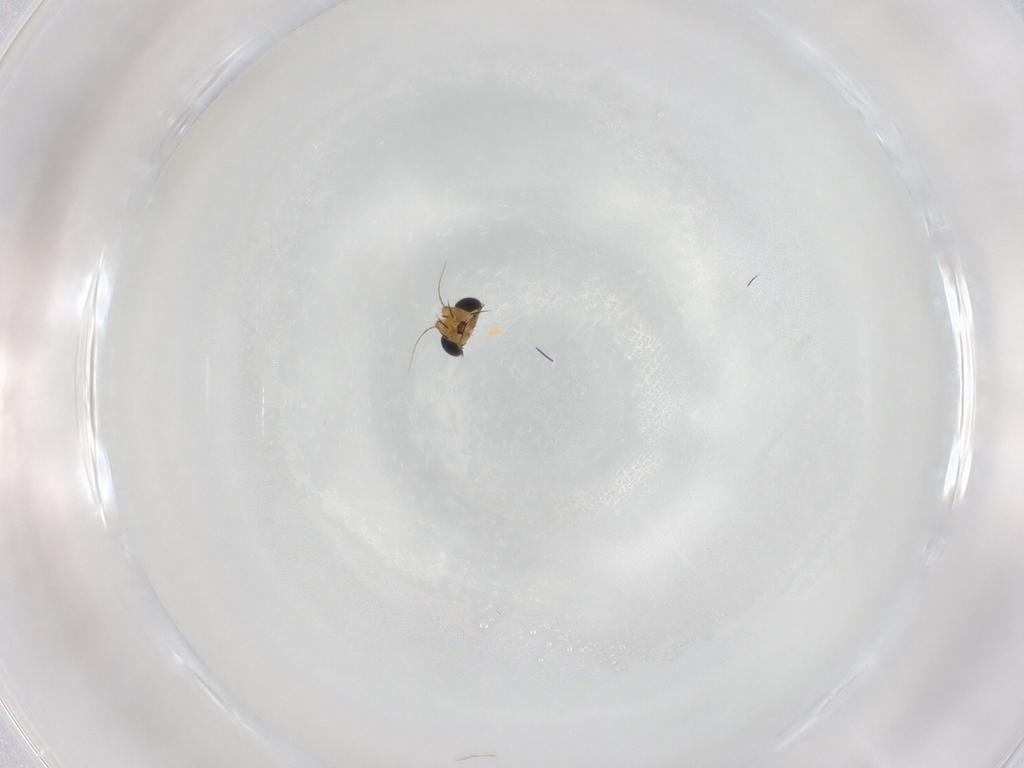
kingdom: Animalia
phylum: Arthropoda
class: Insecta
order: Diptera
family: Phoridae
